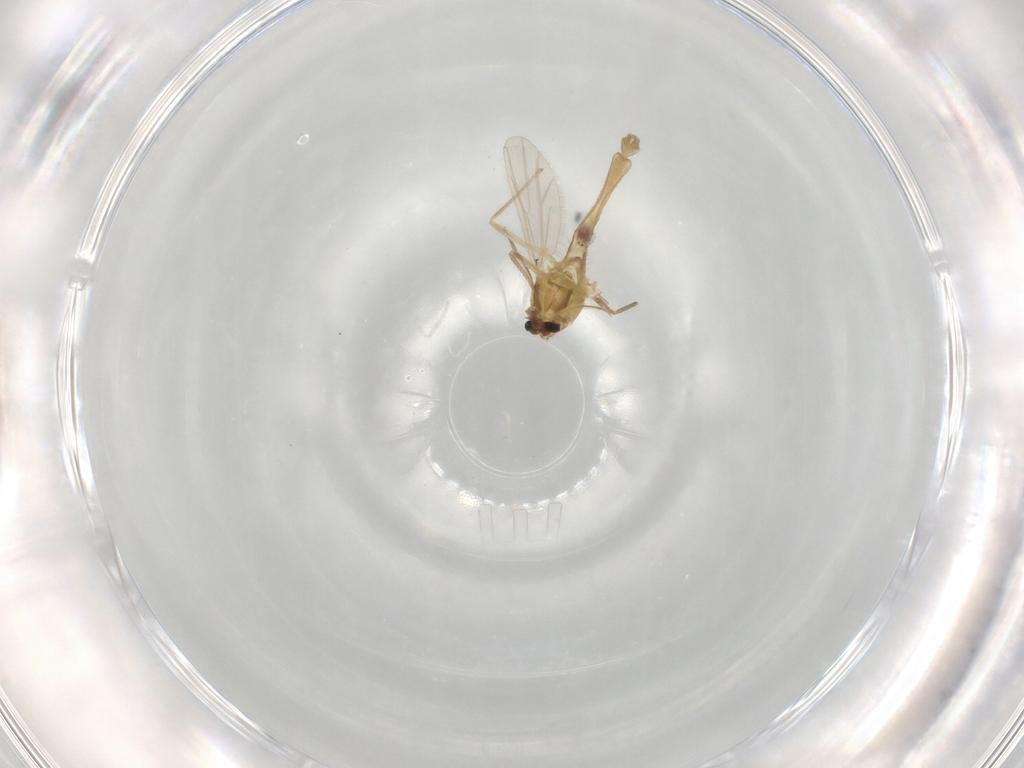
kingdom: Animalia
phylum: Arthropoda
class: Insecta
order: Diptera
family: Chironomidae
